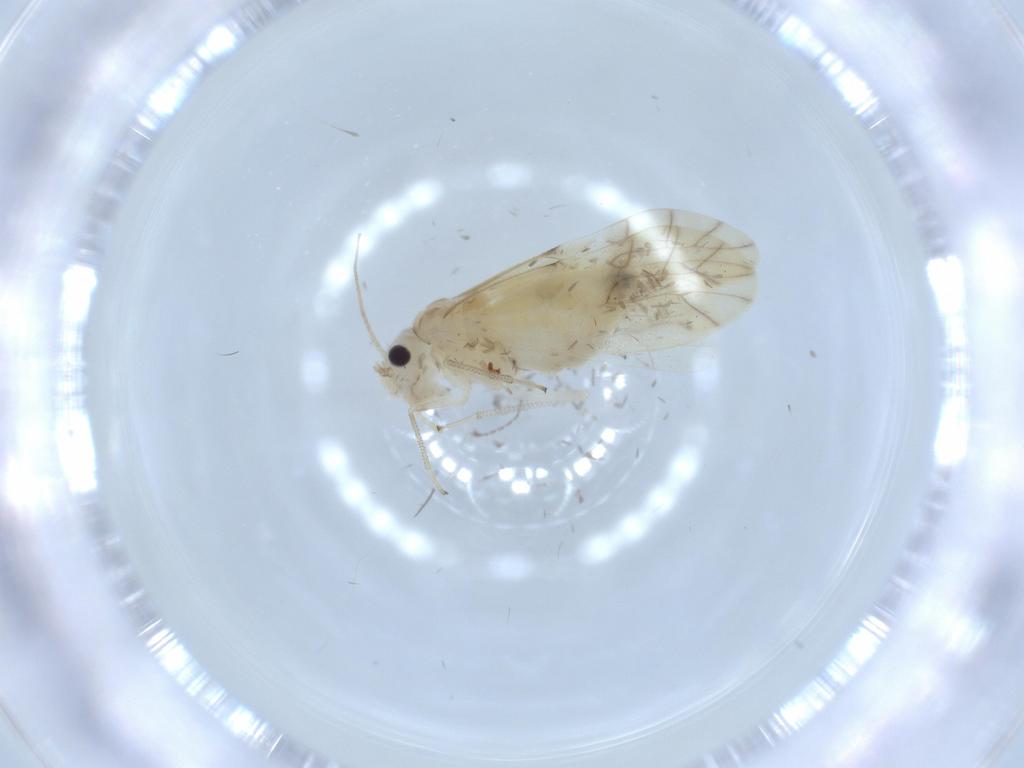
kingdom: Animalia
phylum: Arthropoda
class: Insecta
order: Psocodea
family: Caeciliusidae
